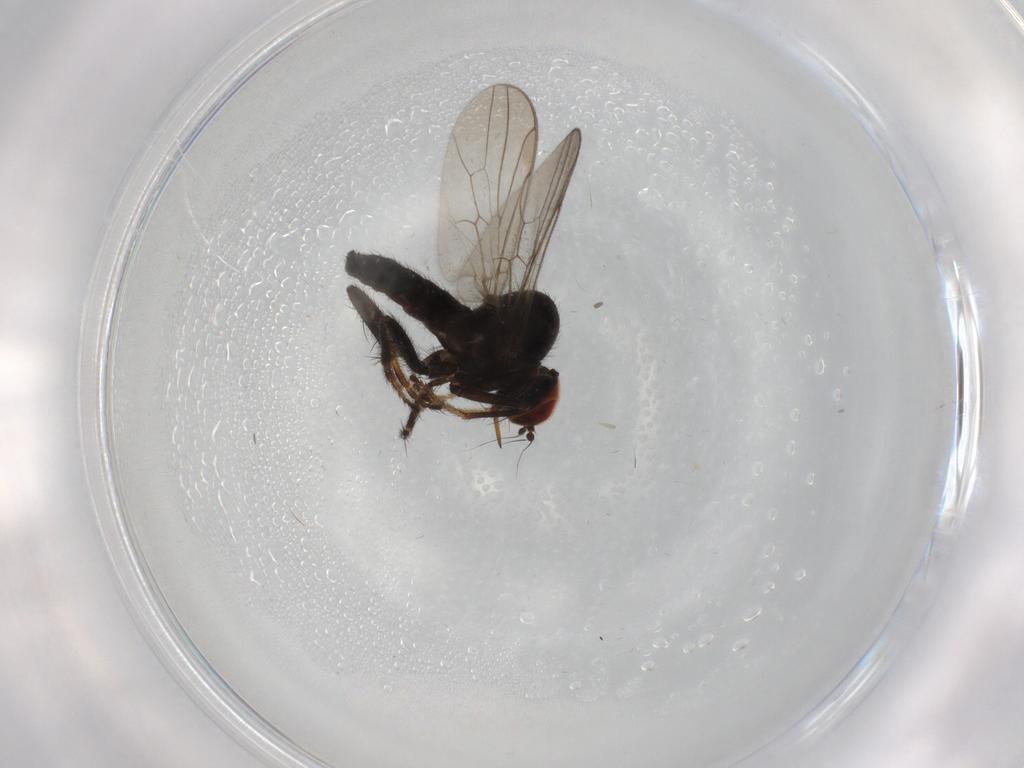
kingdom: Animalia
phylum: Arthropoda
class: Insecta
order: Diptera
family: Hybotidae
